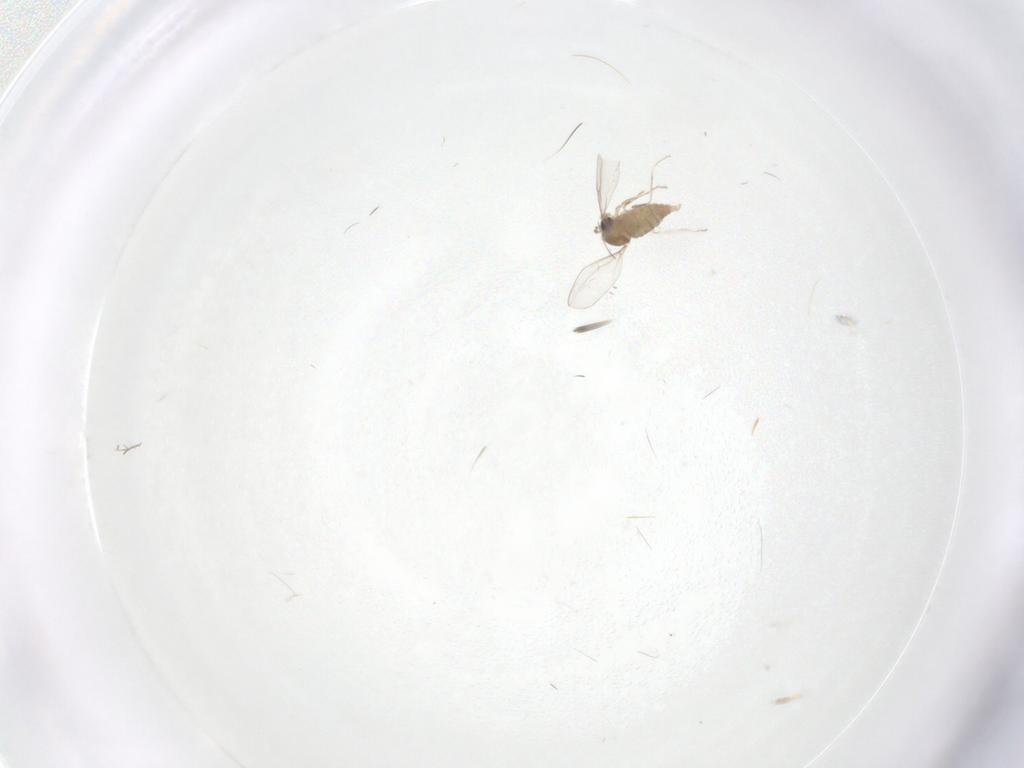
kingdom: Animalia
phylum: Arthropoda
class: Insecta
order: Diptera
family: Cecidomyiidae
